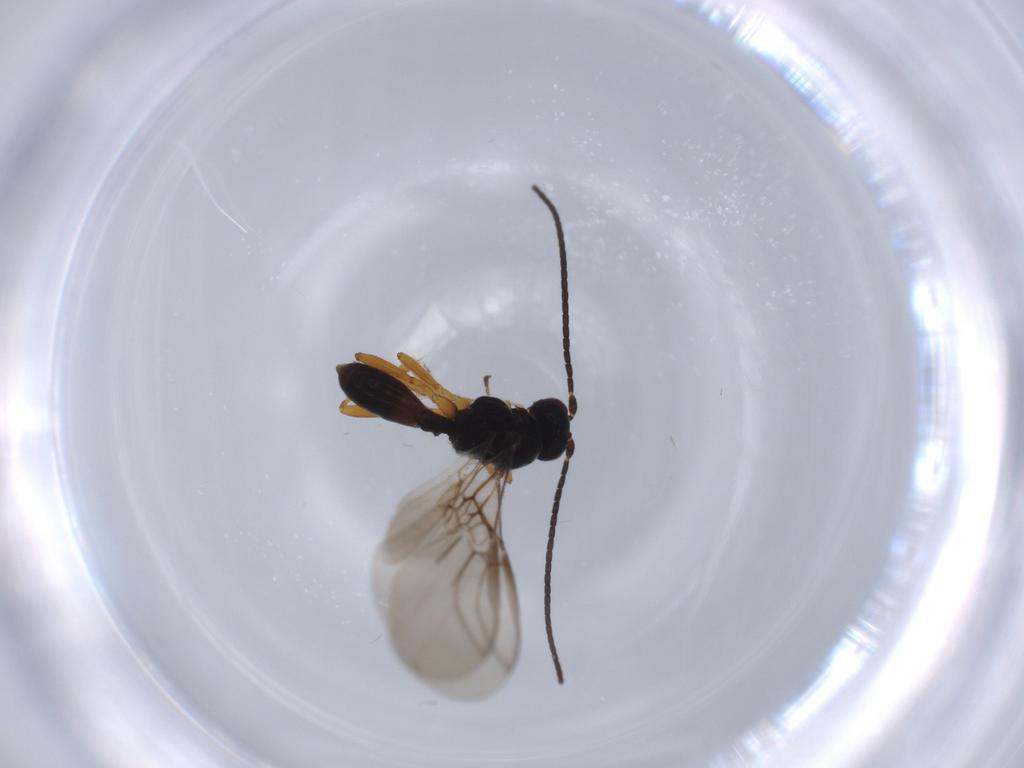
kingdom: Animalia
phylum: Arthropoda
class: Insecta
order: Hymenoptera
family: Braconidae
